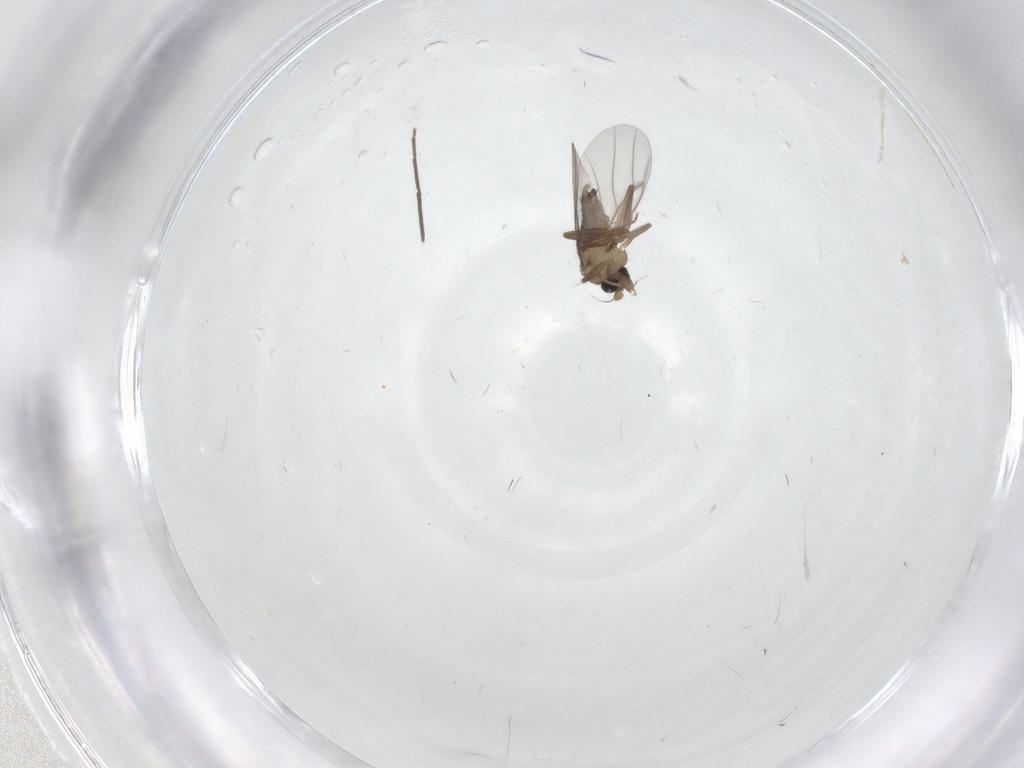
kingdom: Animalia
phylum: Arthropoda
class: Insecta
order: Diptera
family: Chironomidae
